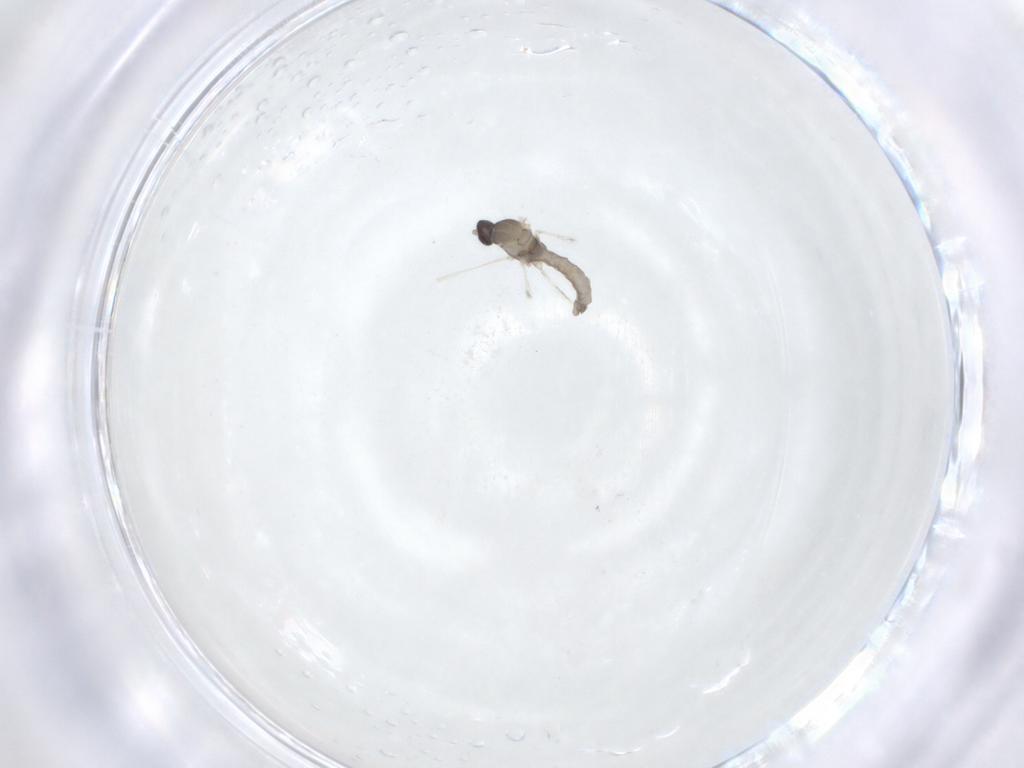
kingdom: Animalia
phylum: Arthropoda
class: Insecta
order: Diptera
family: Cecidomyiidae
